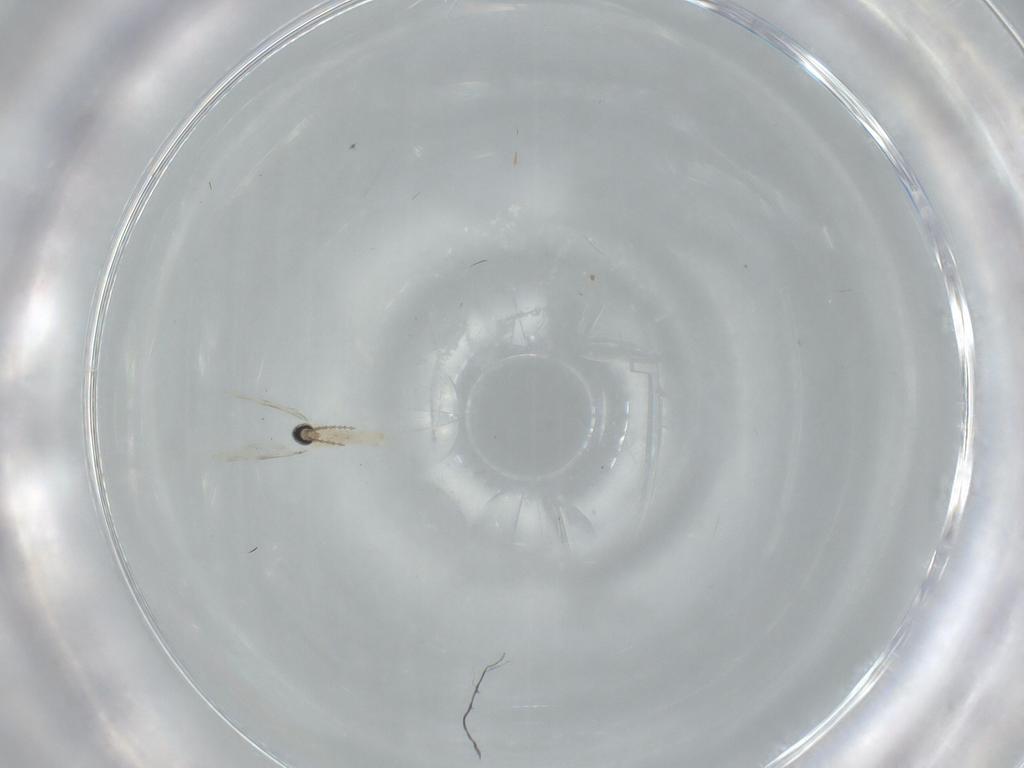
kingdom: Animalia
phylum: Arthropoda
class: Insecta
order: Diptera
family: Cecidomyiidae
